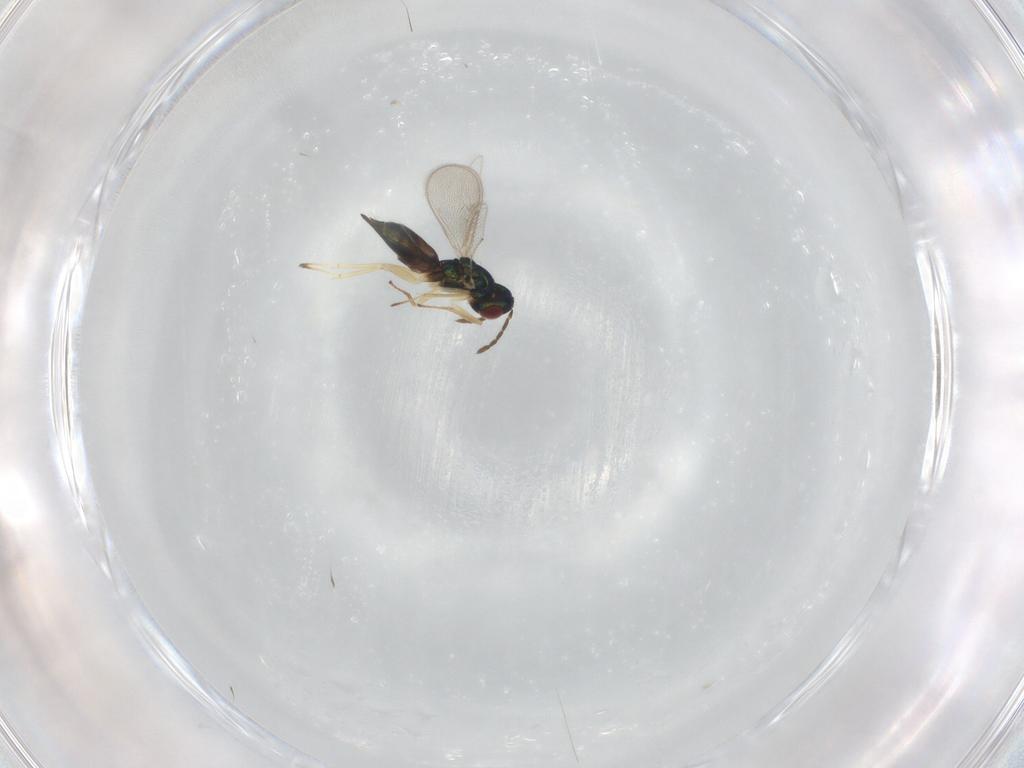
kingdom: Animalia
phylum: Arthropoda
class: Insecta
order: Hymenoptera
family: Eulophidae
